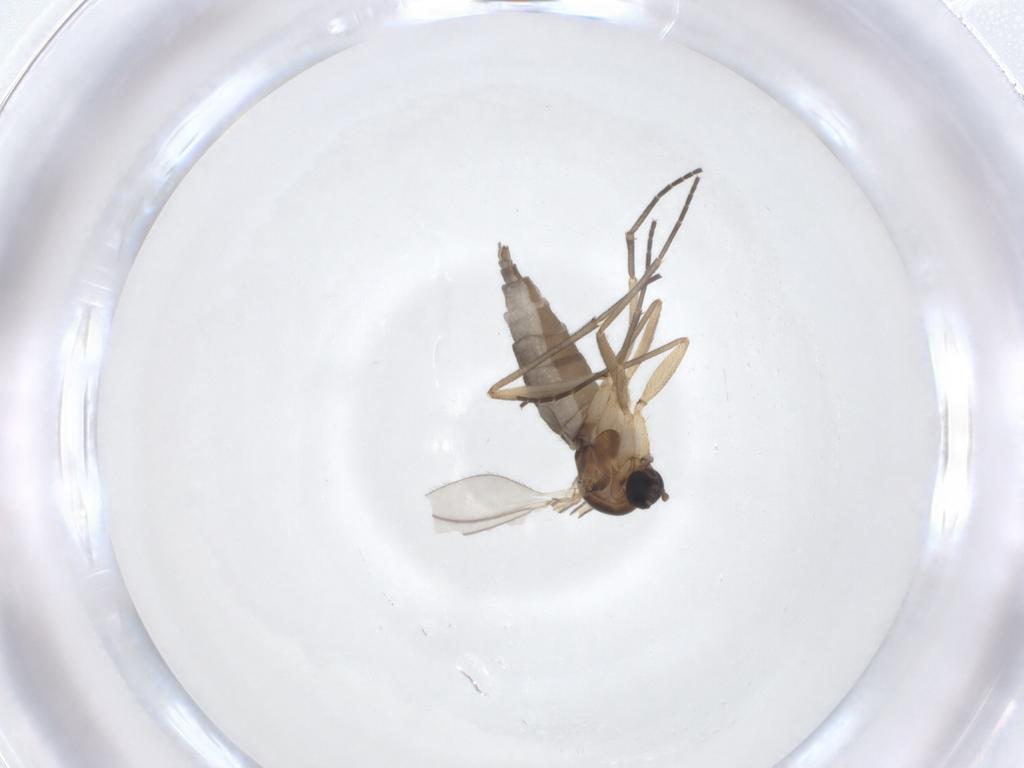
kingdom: Animalia
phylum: Arthropoda
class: Insecta
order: Diptera
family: Sciaridae
